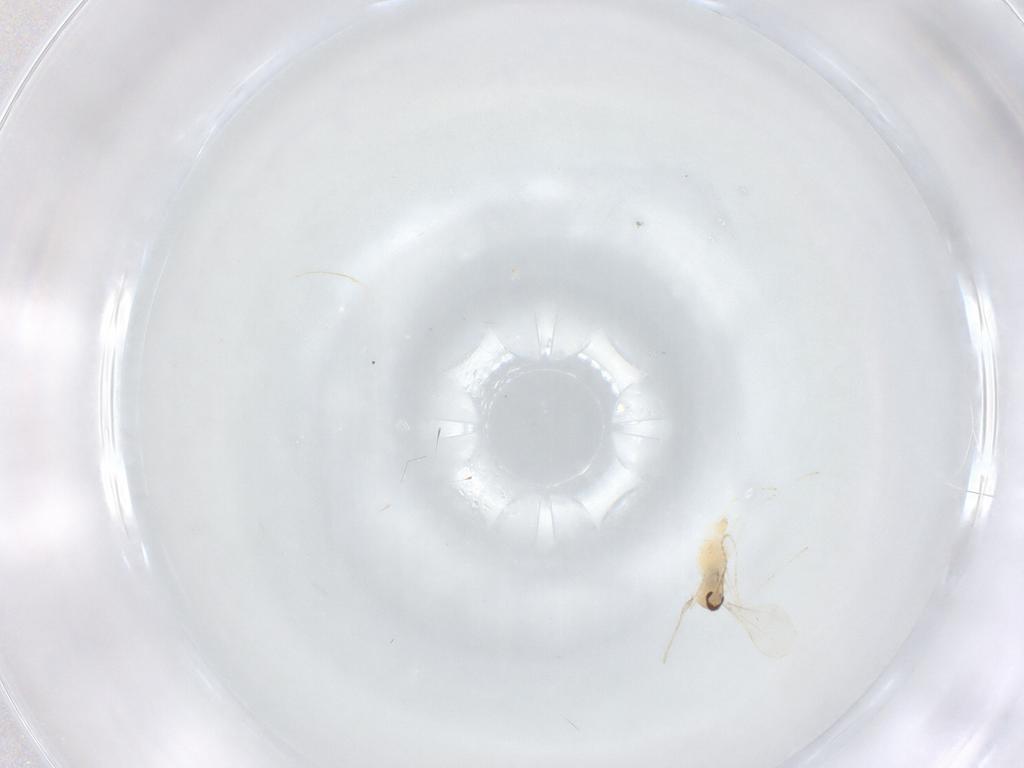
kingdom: Animalia
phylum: Arthropoda
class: Insecta
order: Diptera
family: Cecidomyiidae
